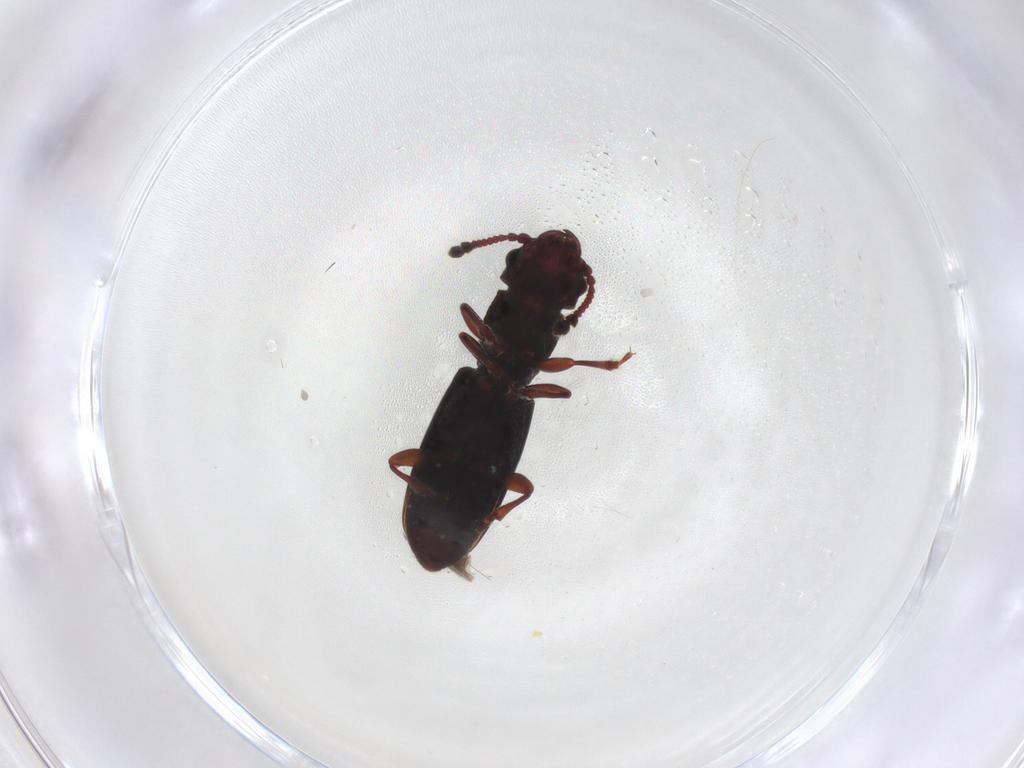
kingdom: Animalia
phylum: Arthropoda
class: Insecta
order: Coleoptera
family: Monotomidae
